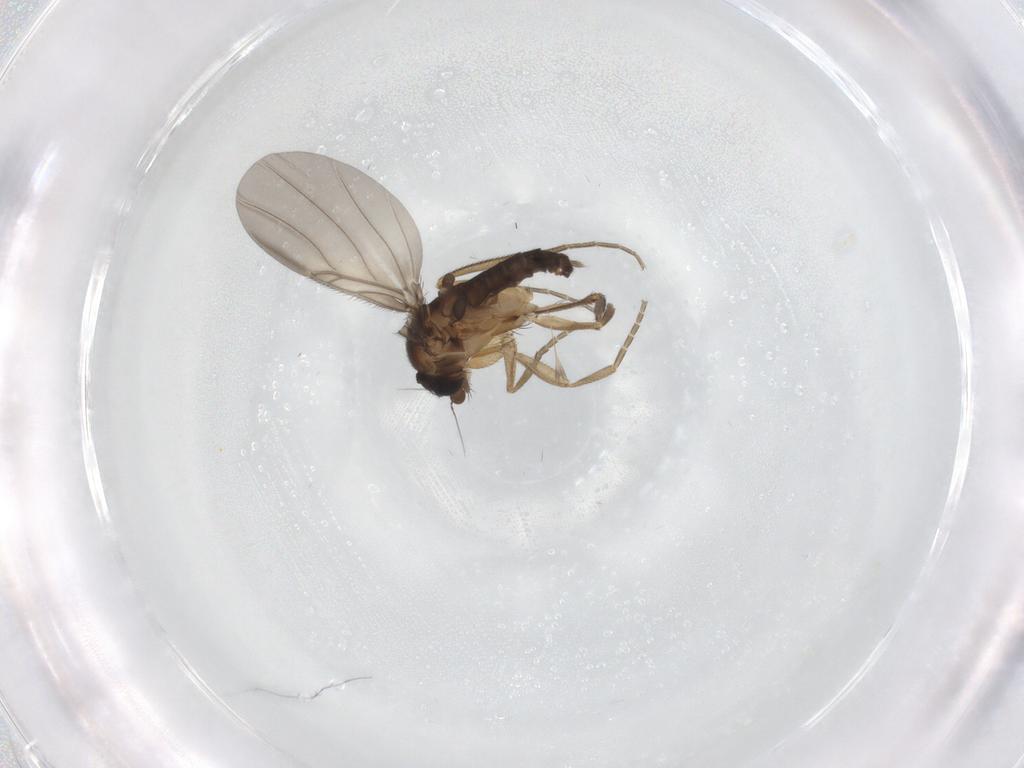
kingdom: Animalia
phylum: Arthropoda
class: Insecta
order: Diptera
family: Phoridae
